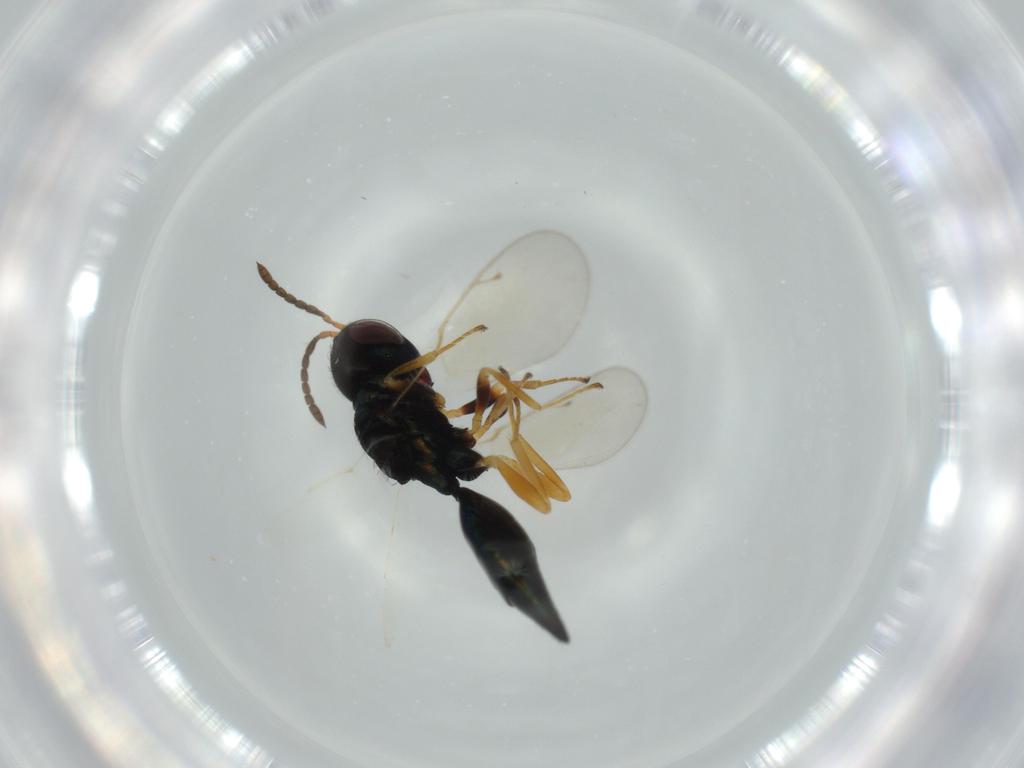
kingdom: Animalia
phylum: Arthropoda
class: Insecta
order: Hymenoptera
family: Pteromalidae
